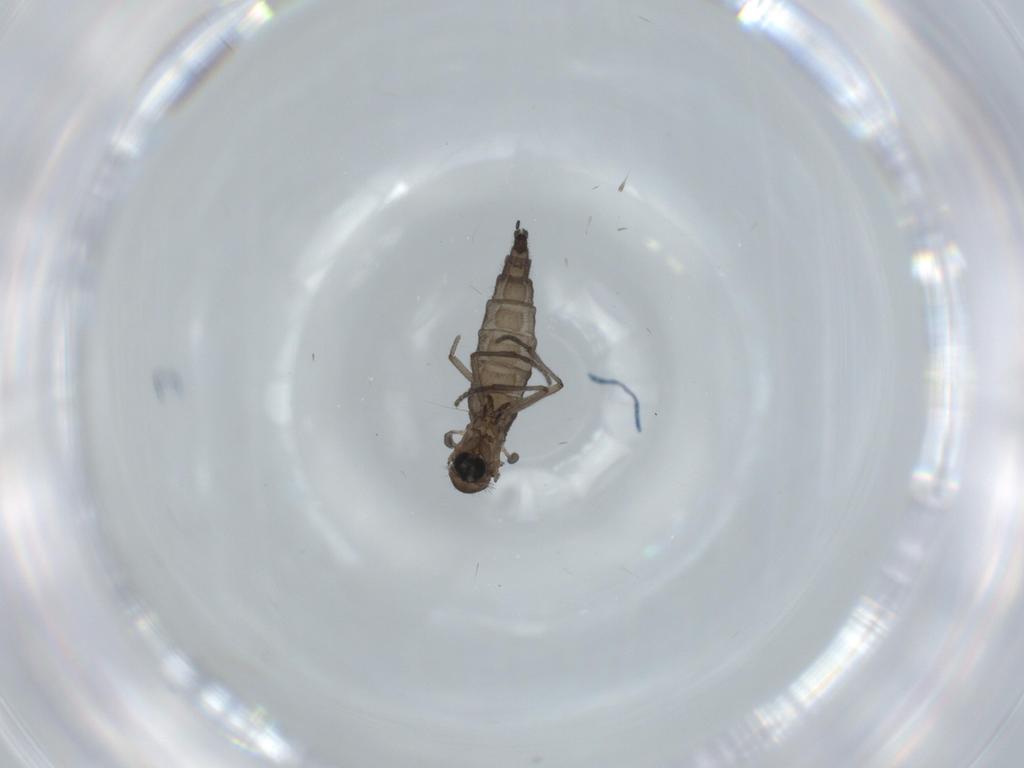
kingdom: Animalia
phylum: Arthropoda
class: Insecta
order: Diptera
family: Sciaridae
